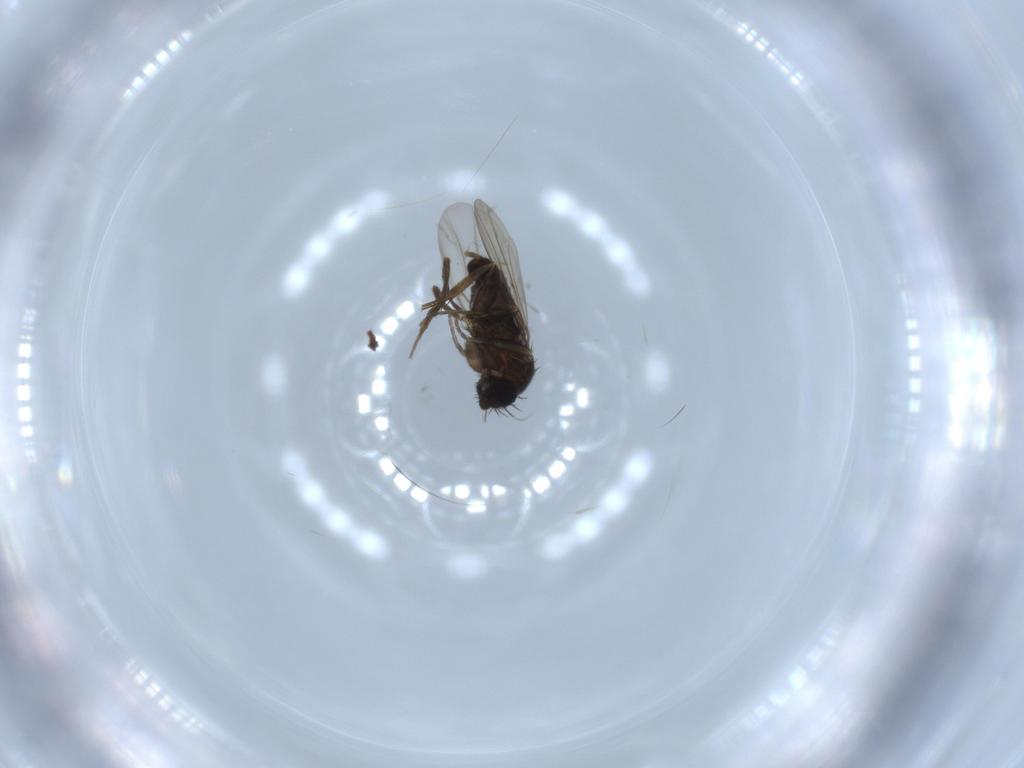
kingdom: Animalia
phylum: Arthropoda
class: Insecta
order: Diptera
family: Phoridae
